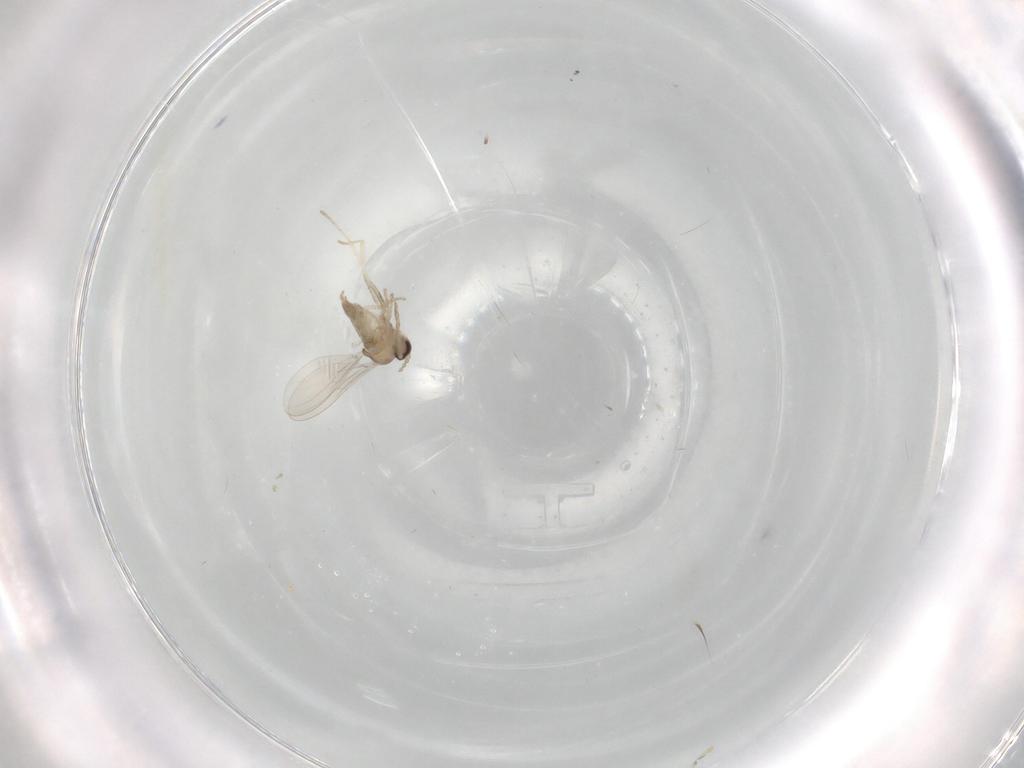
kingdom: Animalia
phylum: Arthropoda
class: Insecta
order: Diptera
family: Cecidomyiidae
